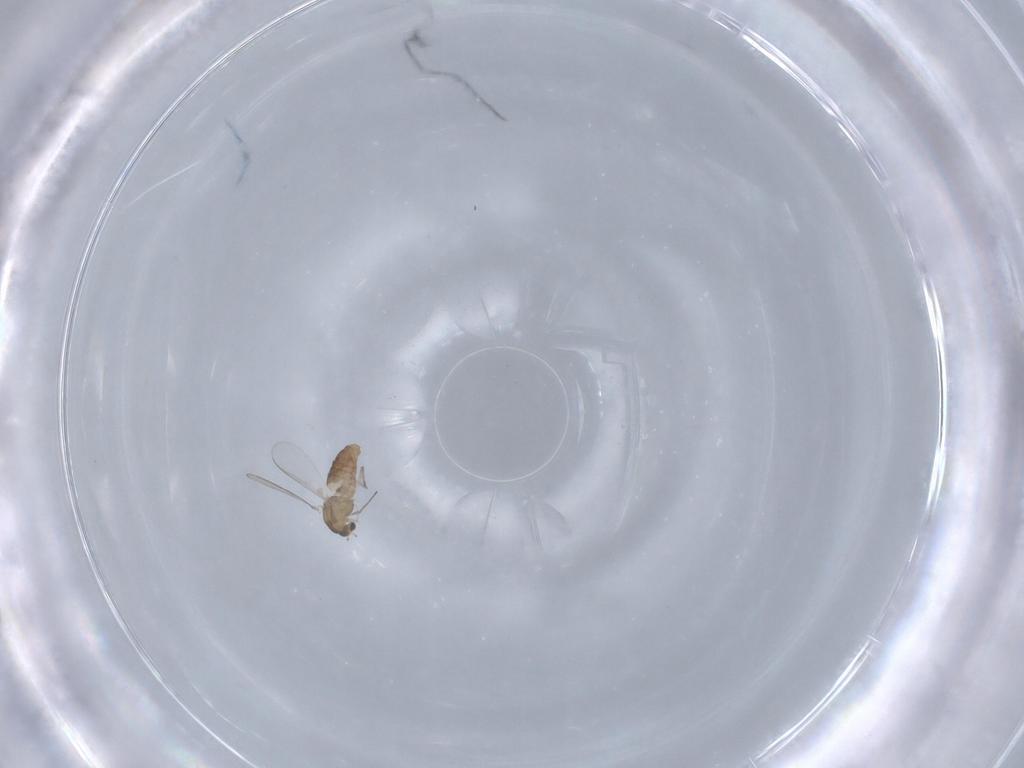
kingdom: Animalia
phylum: Arthropoda
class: Insecta
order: Diptera
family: Chironomidae
